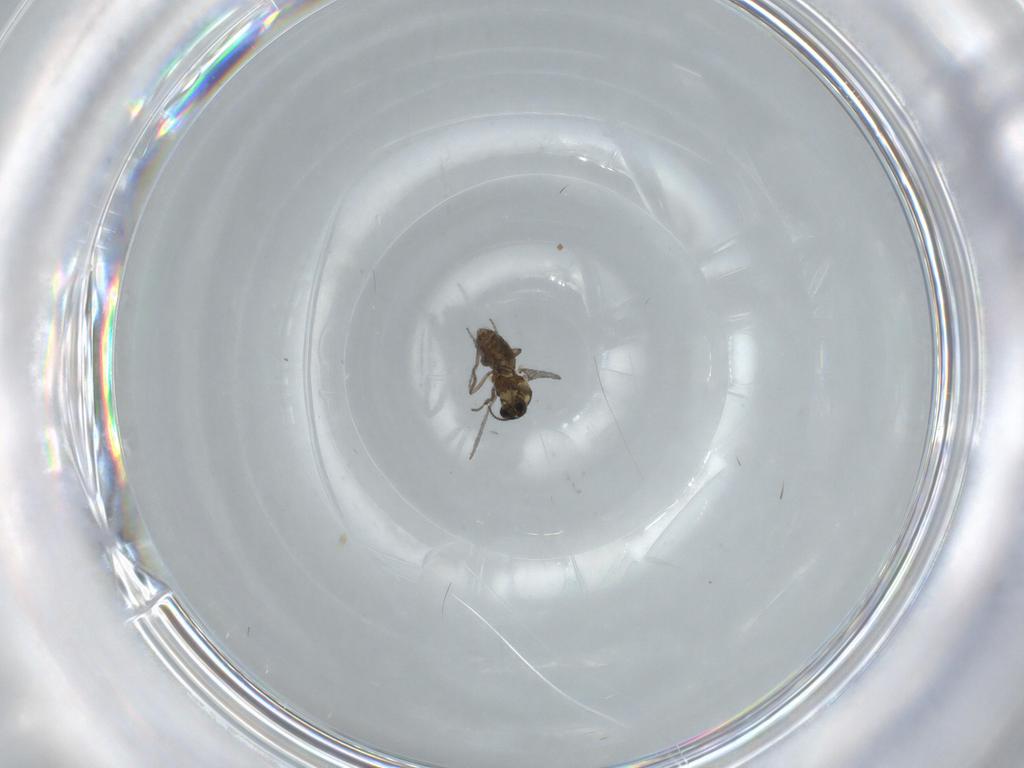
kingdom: Animalia
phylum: Arthropoda
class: Insecta
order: Diptera
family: Ceratopogonidae
